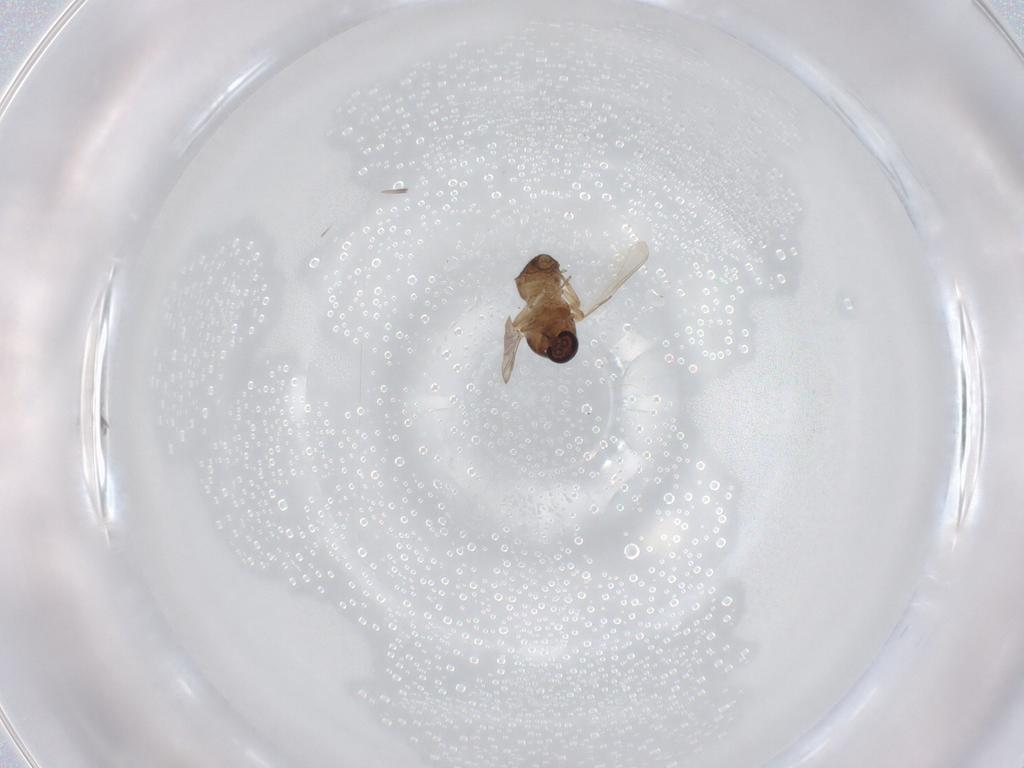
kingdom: Animalia
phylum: Arthropoda
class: Insecta
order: Diptera
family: Ceratopogonidae
